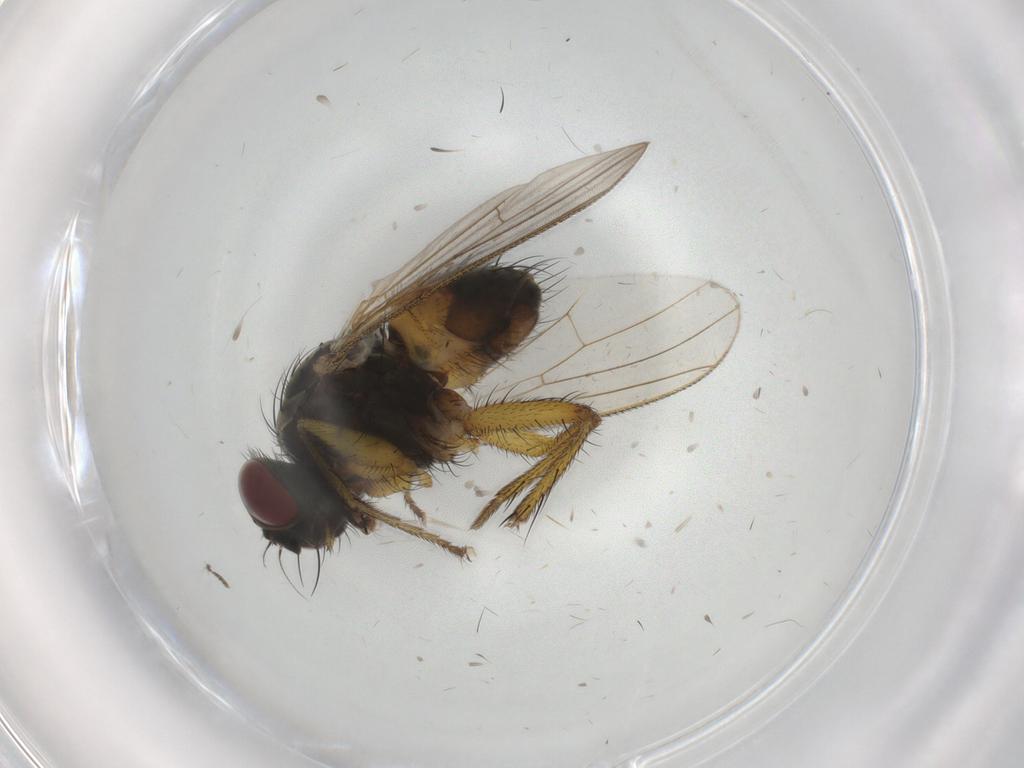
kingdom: Animalia
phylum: Arthropoda
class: Insecta
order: Diptera
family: Muscidae
